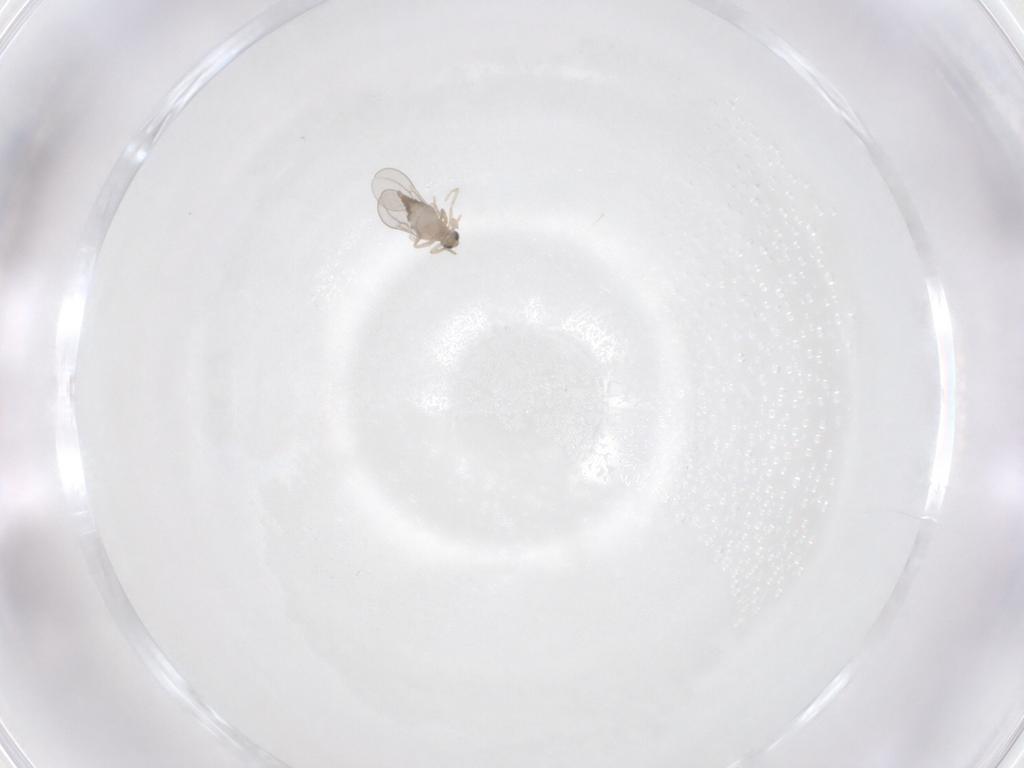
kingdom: Animalia
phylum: Arthropoda
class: Insecta
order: Diptera
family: Cecidomyiidae
